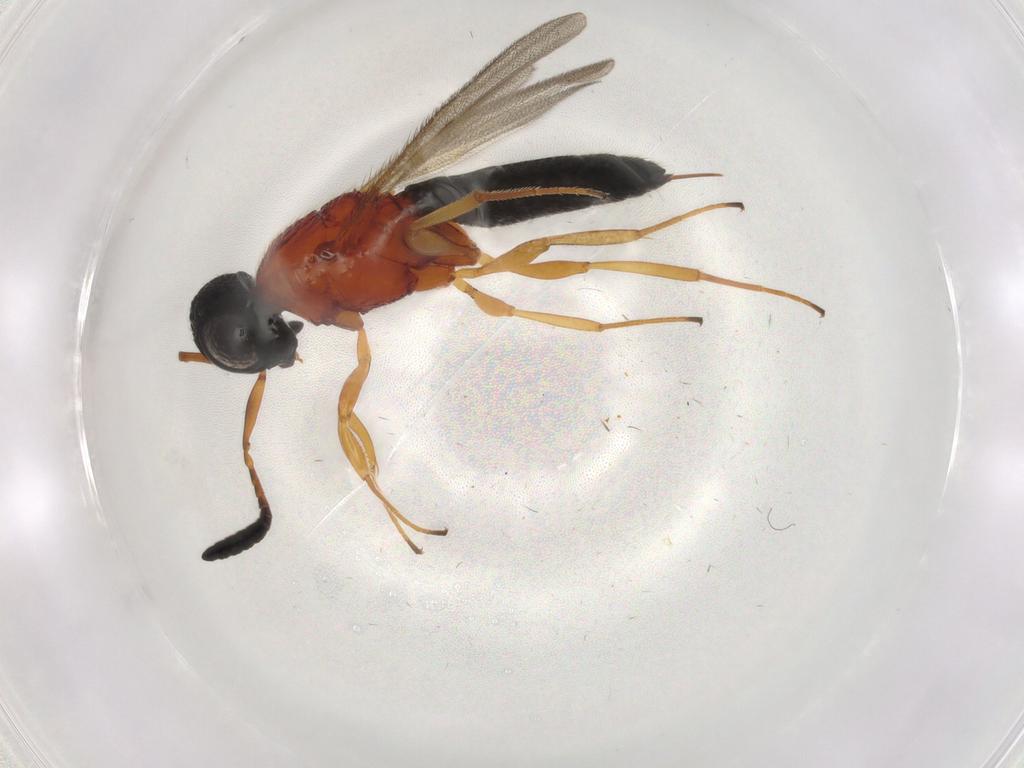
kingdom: Animalia
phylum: Arthropoda
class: Insecta
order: Hymenoptera
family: Scelionidae
